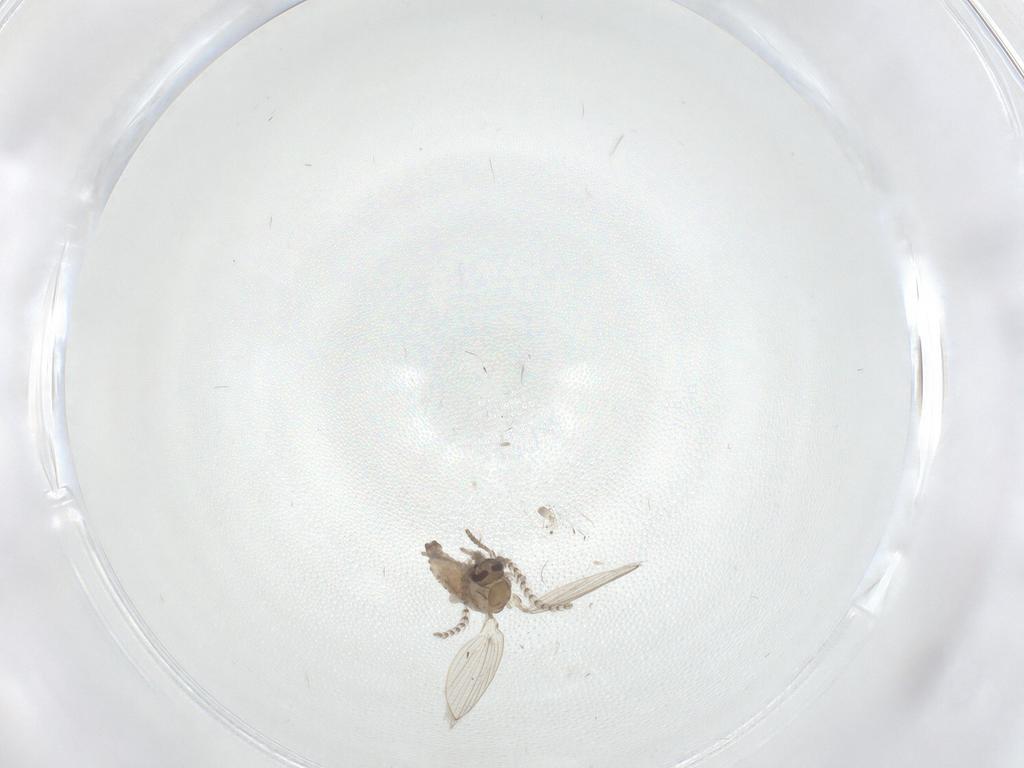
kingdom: Animalia
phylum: Arthropoda
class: Insecta
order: Diptera
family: Psychodidae
